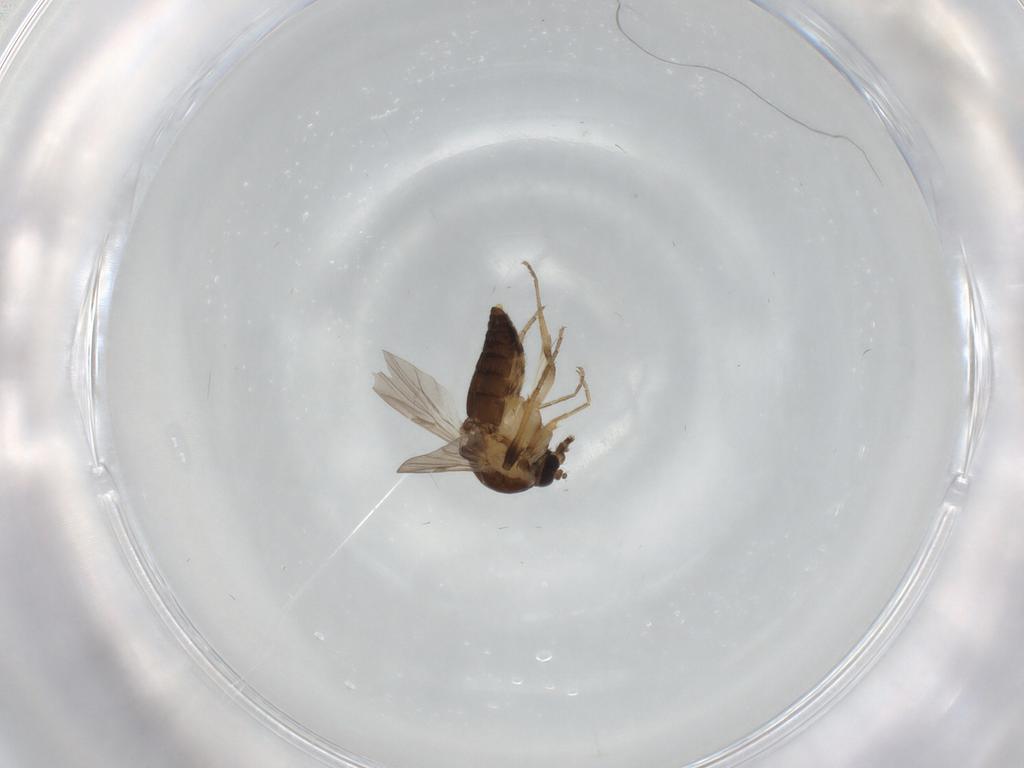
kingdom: Animalia
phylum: Arthropoda
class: Insecta
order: Diptera
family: Ceratopogonidae
